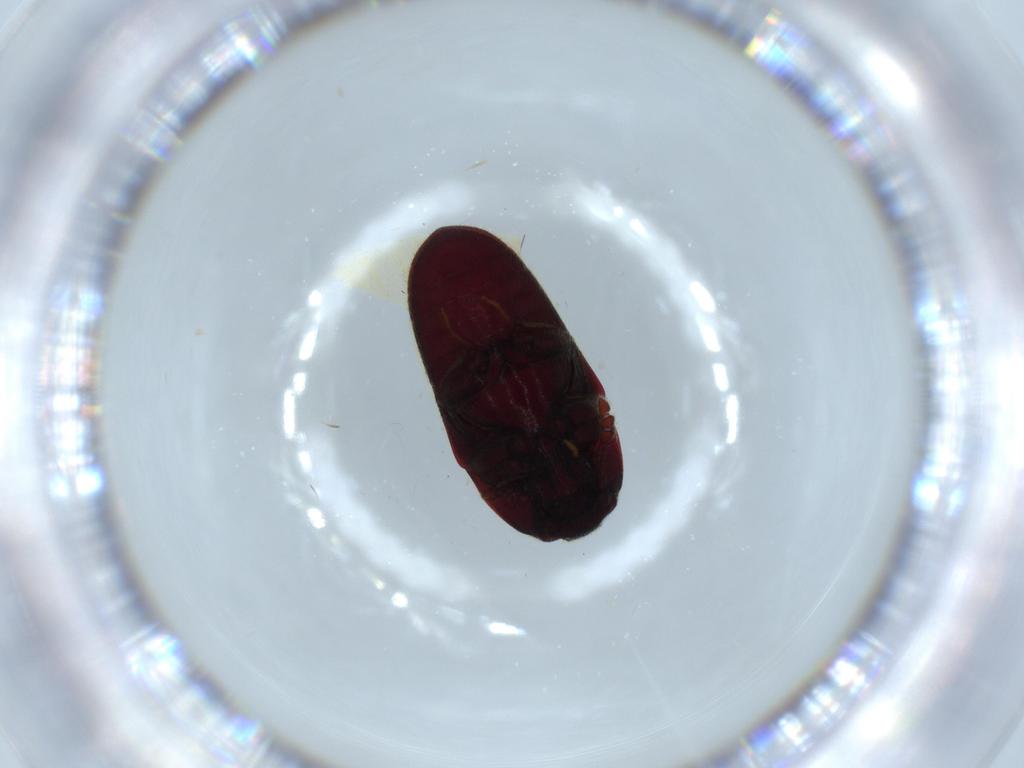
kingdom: Animalia
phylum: Arthropoda
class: Insecta
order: Coleoptera
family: Throscidae
